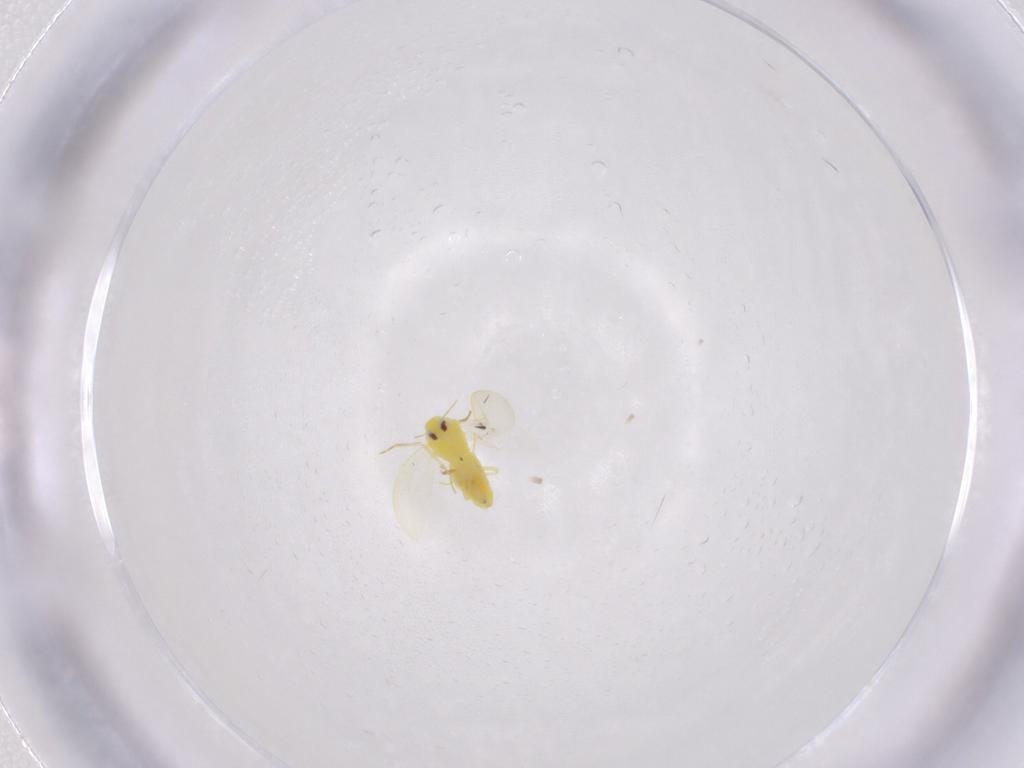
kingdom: Animalia
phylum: Arthropoda
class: Insecta
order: Hemiptera
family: Cicadellidae
